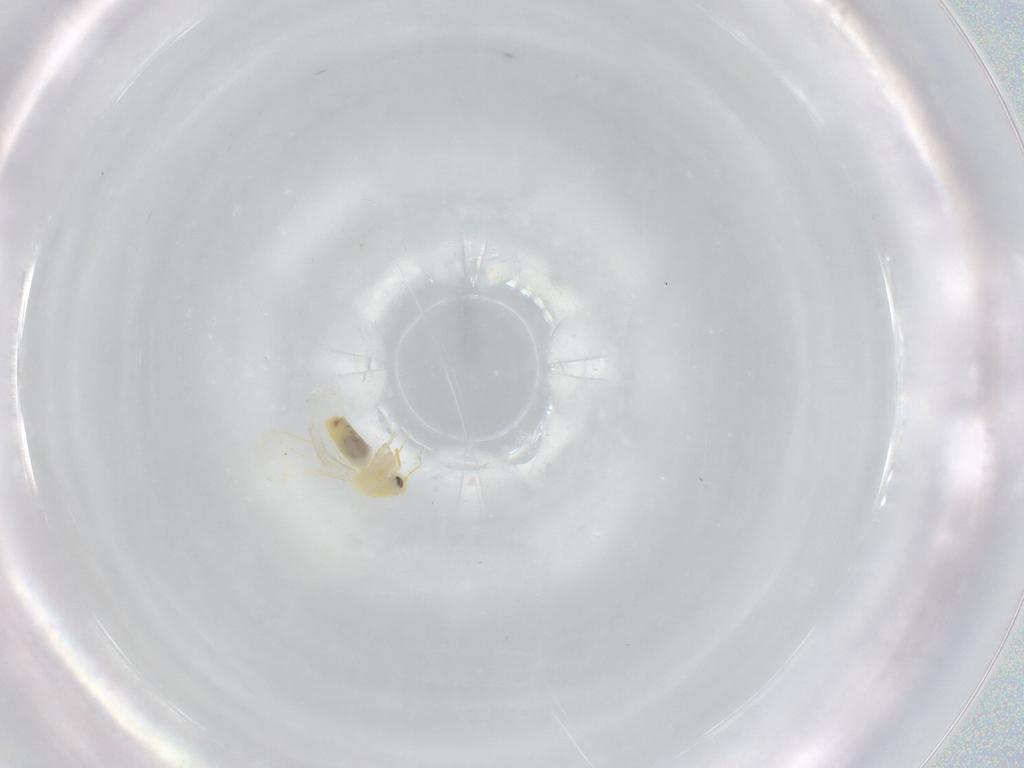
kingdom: Animalia
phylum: Arthropoda
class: Insecta
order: Hemiptera
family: Aleyrodidae
